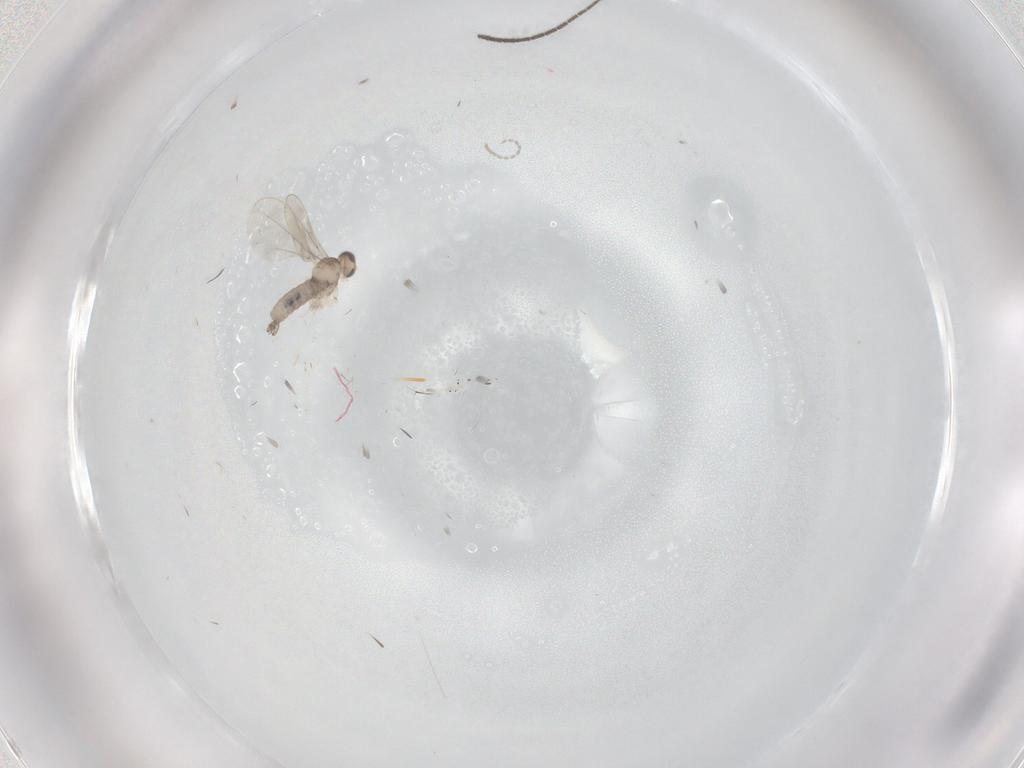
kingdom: Animalia
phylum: Arthropoda
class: Insecta
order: Diptera
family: Sciaridae
